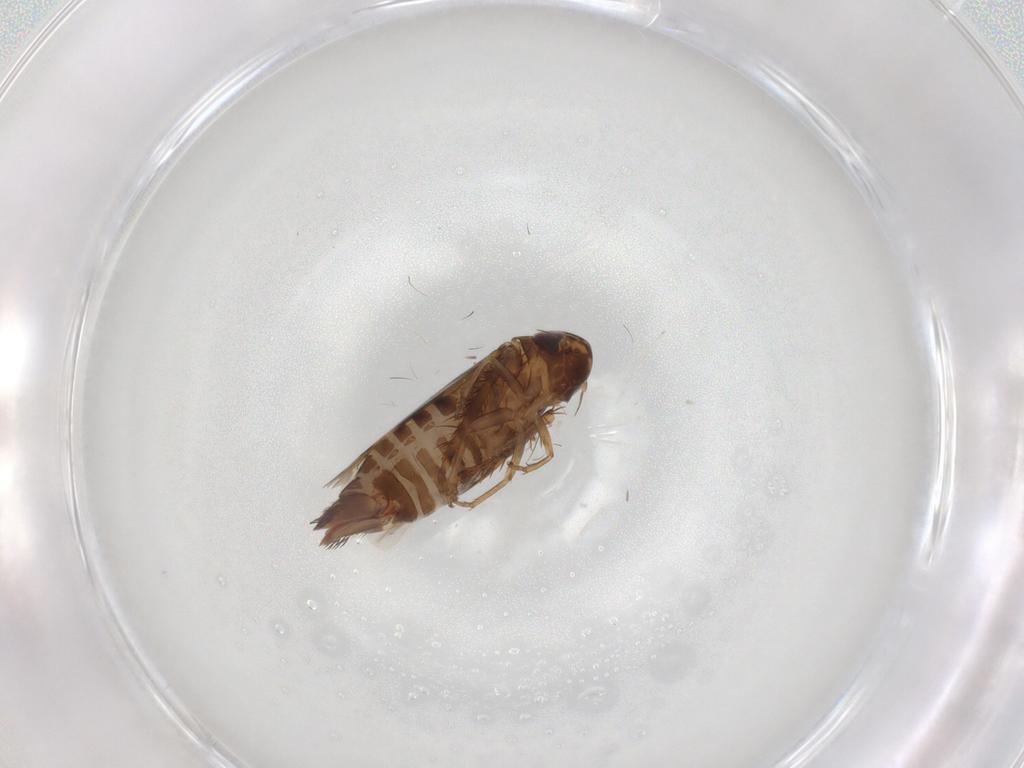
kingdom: Animalia
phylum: Arthropoda
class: Insecta
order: Hemiptera
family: Cicadellidae
